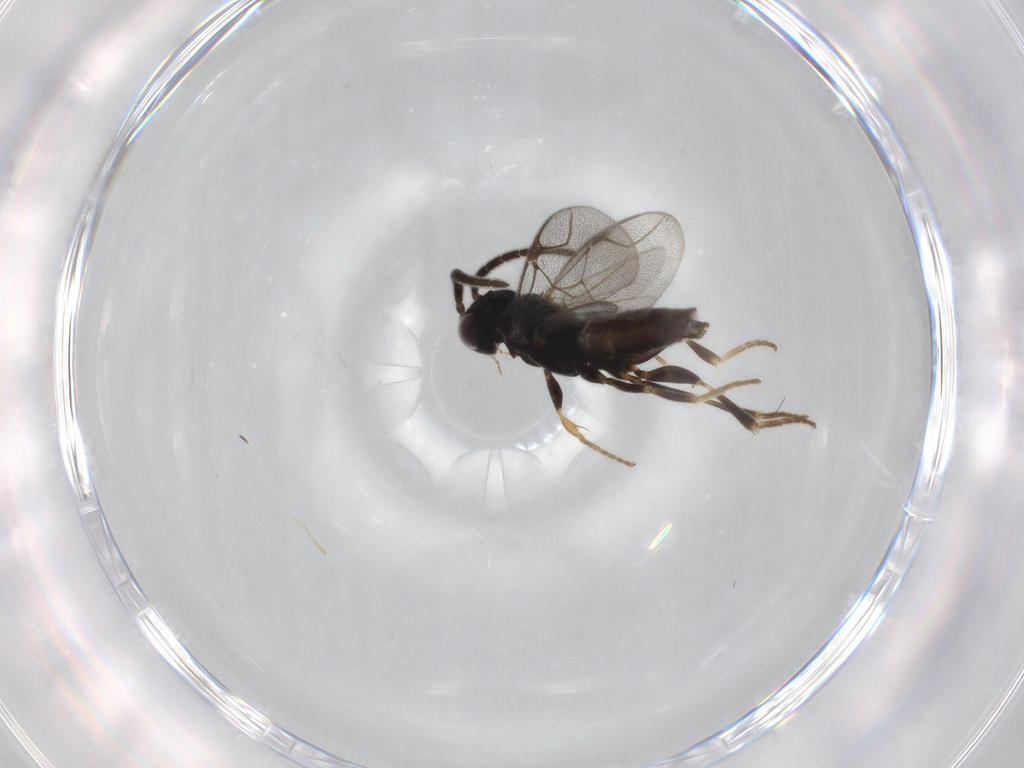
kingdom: Animalia
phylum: Arthropoda
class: Insecta
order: Hymenoptera
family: Dryinidae
